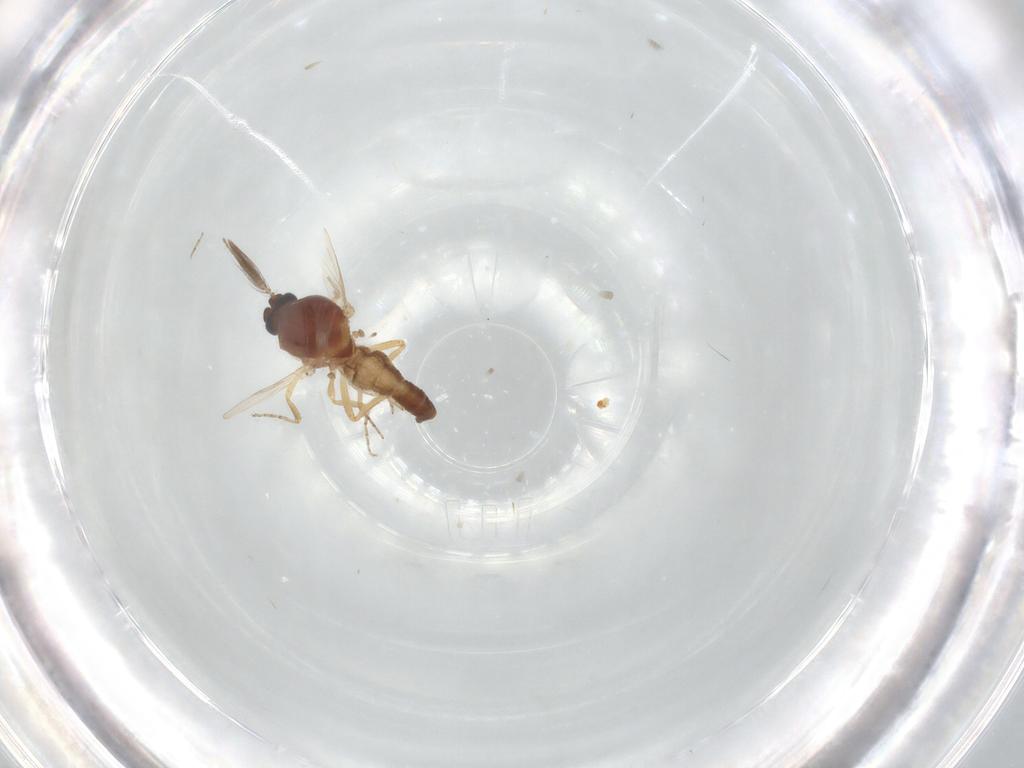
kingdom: Animalia
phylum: Arthropoda
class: Insecta
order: Diptera
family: Ceratopogonidae
